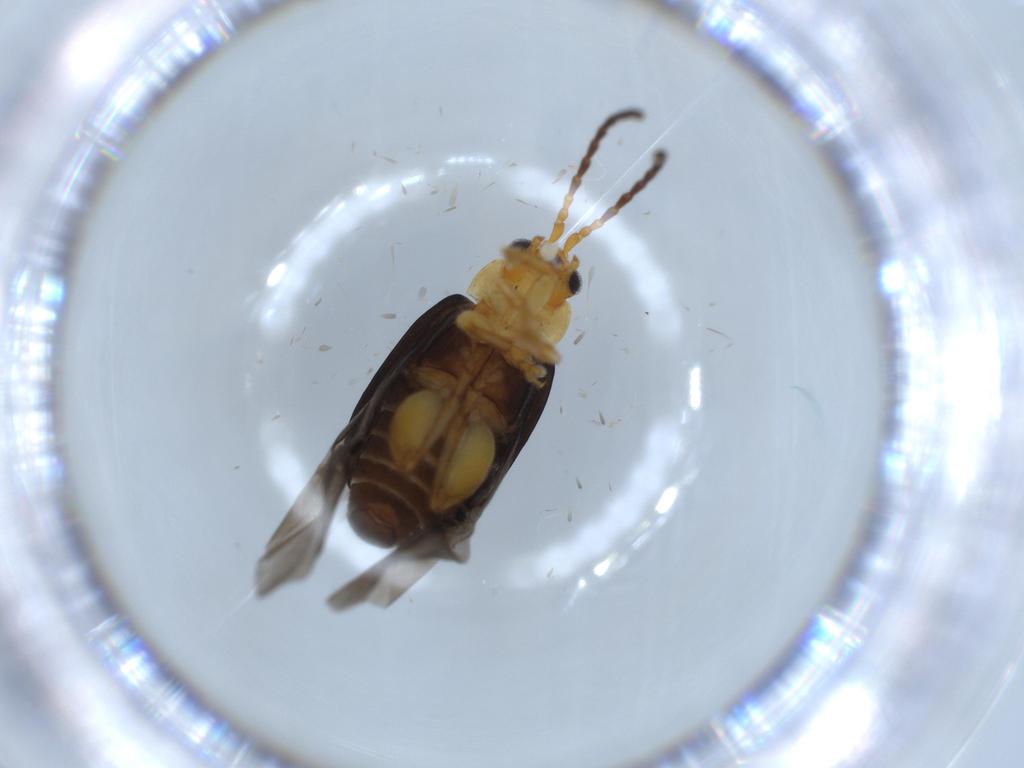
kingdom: Animalia
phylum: Arthropoda
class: Insecta
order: Coleoptera
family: Chrysomelidae
